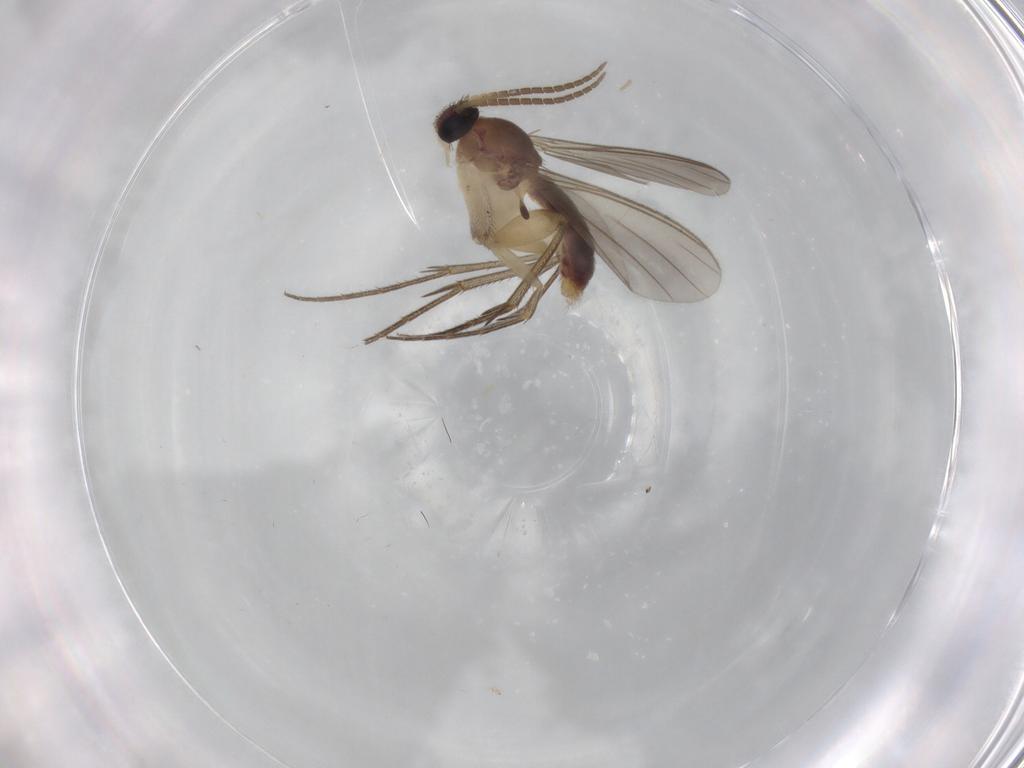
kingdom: Animalia
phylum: Arthropoda
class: Insecta
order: Diptera
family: Mycetophilidae
